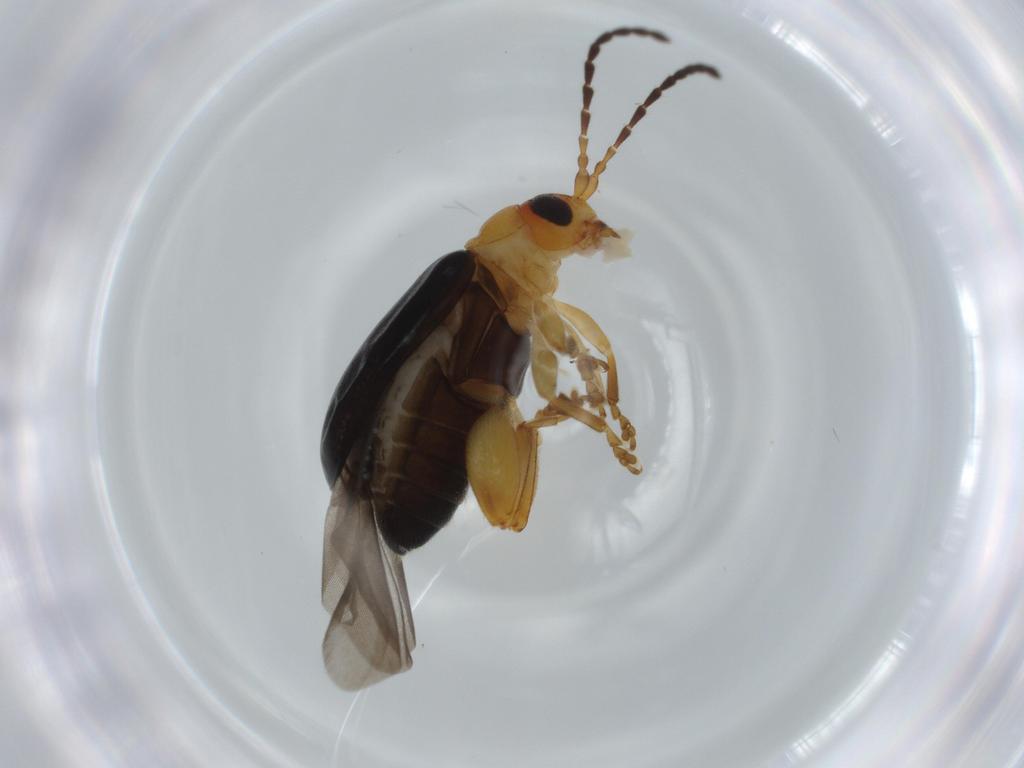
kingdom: Animalia
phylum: Arthropoda
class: Insecta
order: Coleoptera
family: Chrysomelidae
